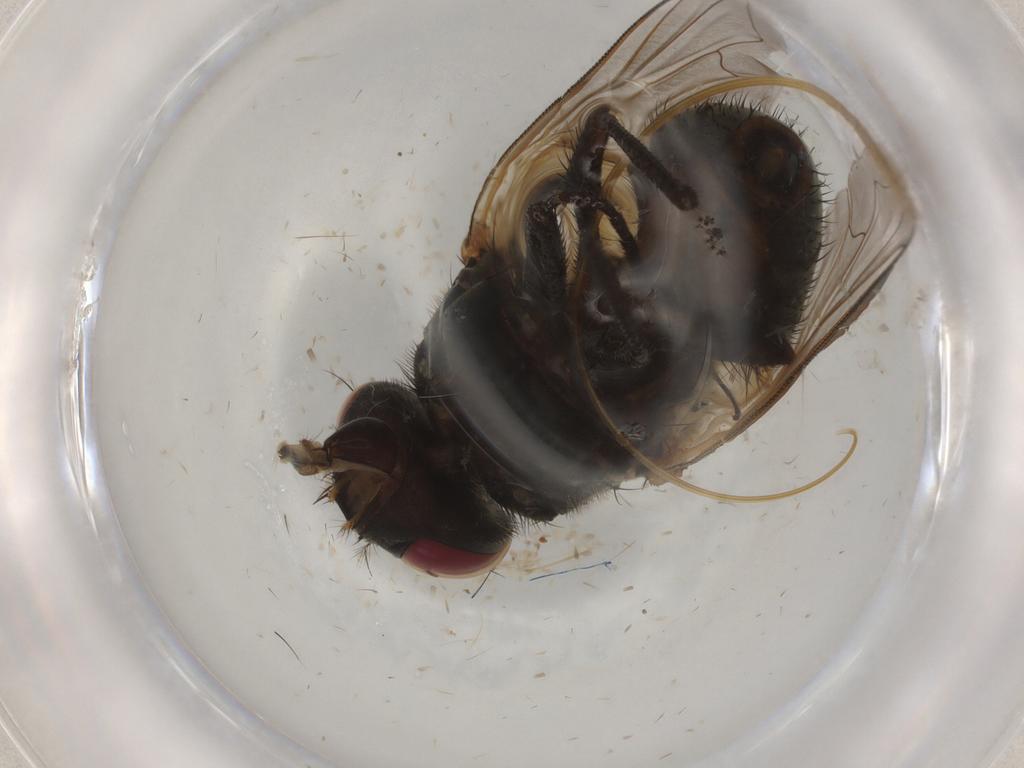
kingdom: Animalia
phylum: Arthropoda
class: Insecta
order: Diptera
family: Muscidae
